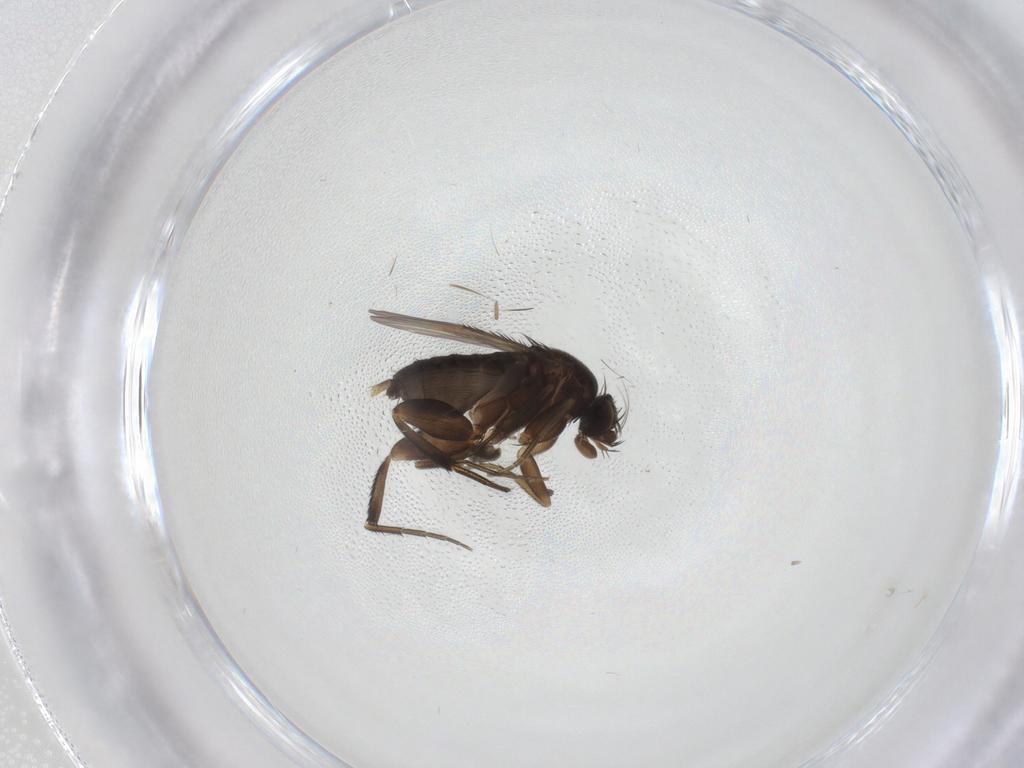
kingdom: Animalia
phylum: Arthropoda
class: Insecta
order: Diptera
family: Phoridae
